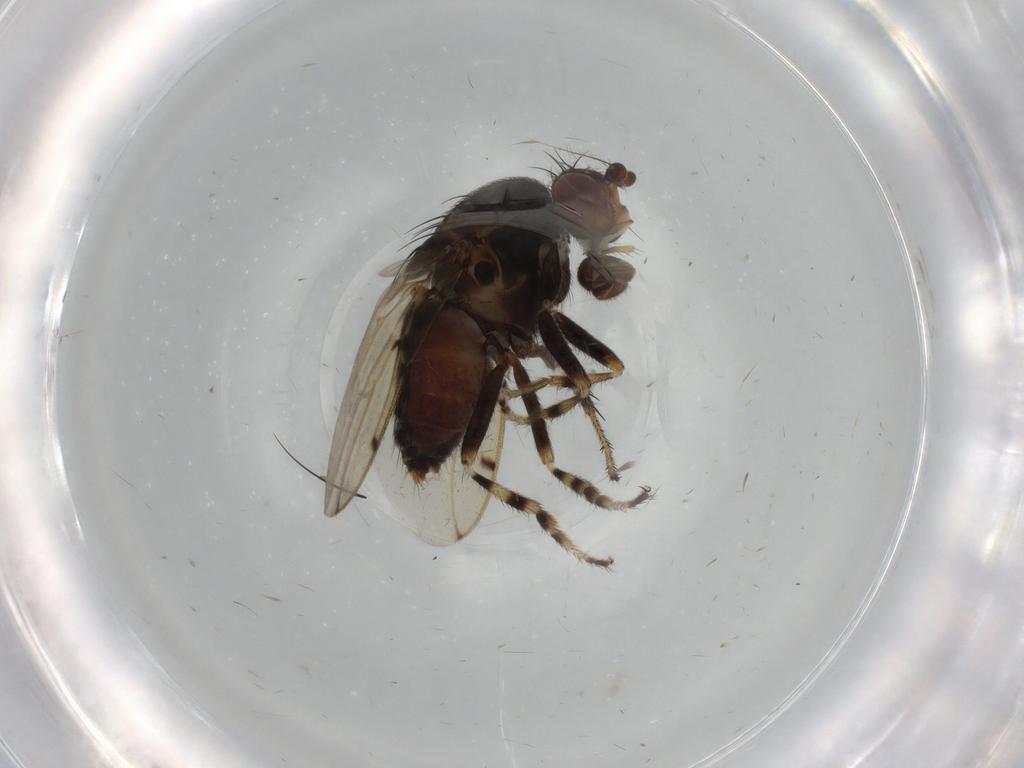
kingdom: Animalia
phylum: Arthropoda
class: Insecta
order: Diptera
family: Sphaeroceridae
